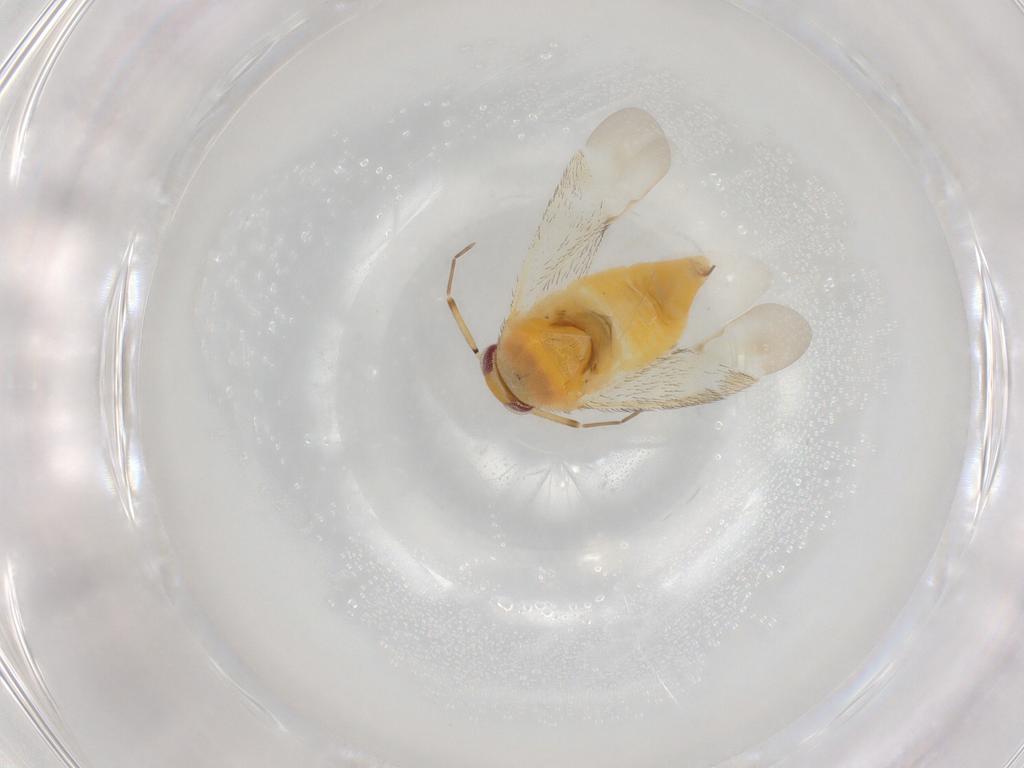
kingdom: Animalia
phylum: Arthropoda
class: Insecta
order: Hemiptera
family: Miridae
